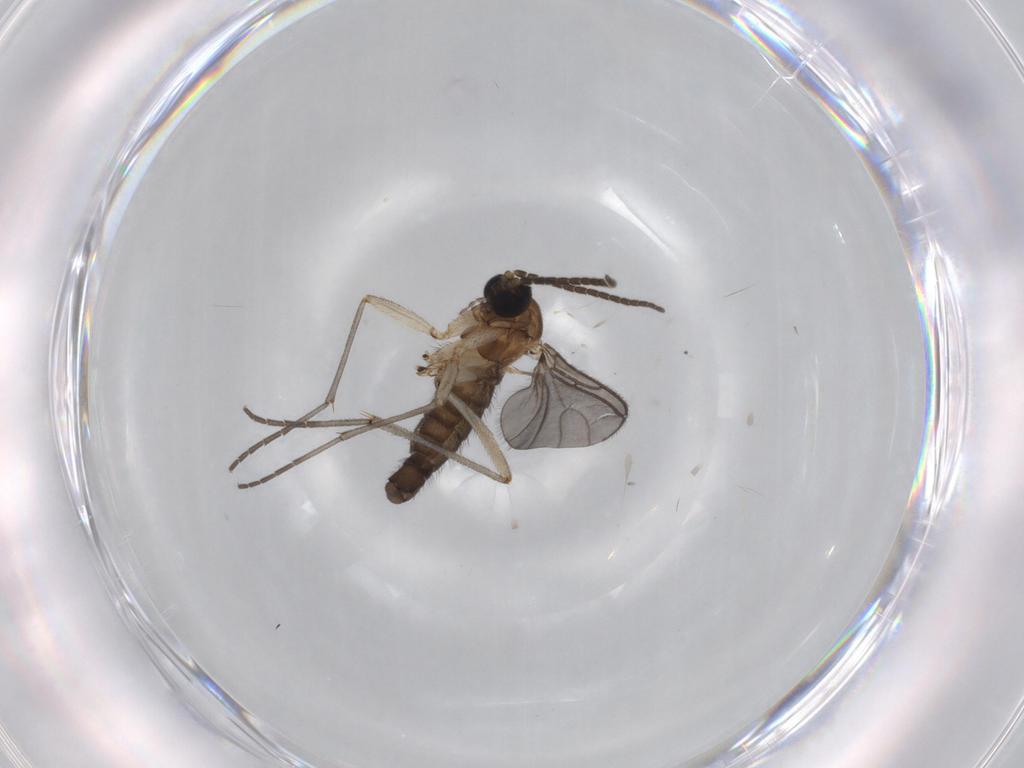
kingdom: Animalia
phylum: Arthropoda
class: Insecta
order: Diptera
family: Sciaridae
